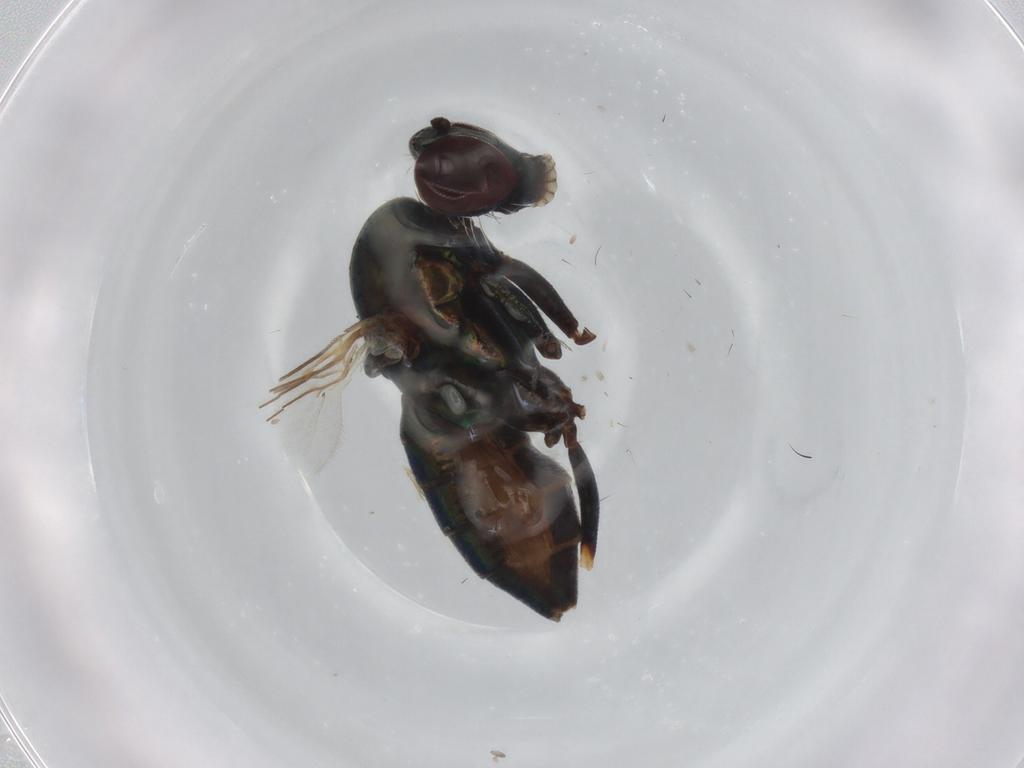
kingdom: Animalia
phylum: Arthropoda
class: Insecta
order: Diptera
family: Dolichopodidae
